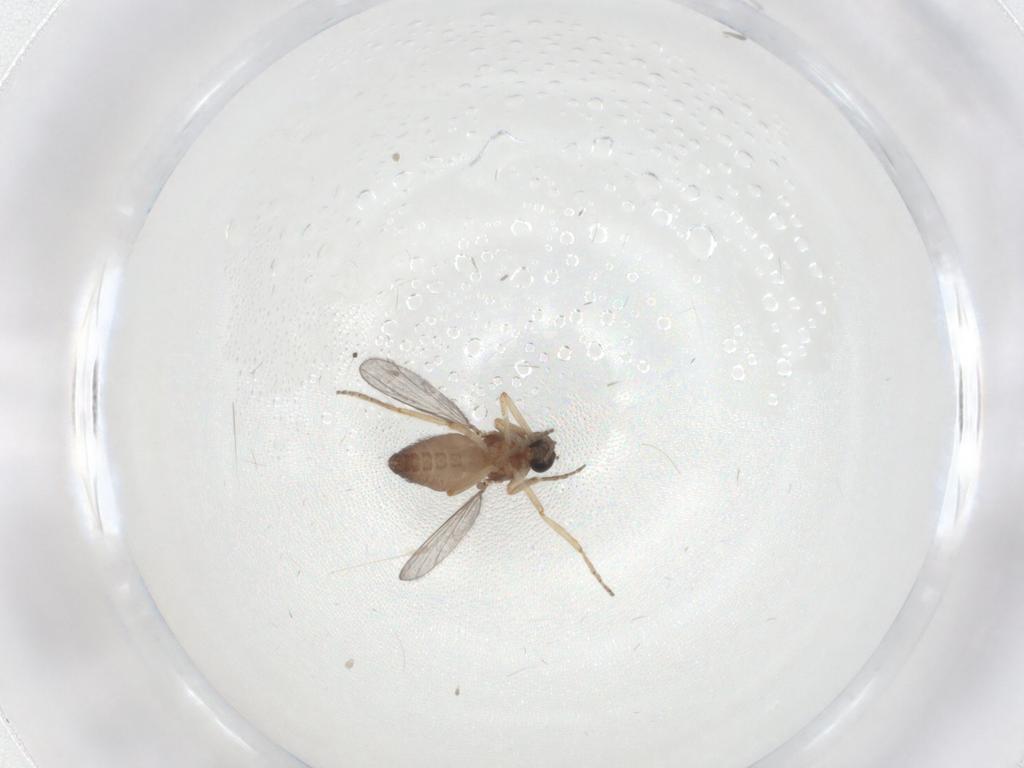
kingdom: Animalia
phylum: Arthropoda
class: Insecta
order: Diptera
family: Ceratopogonidae
